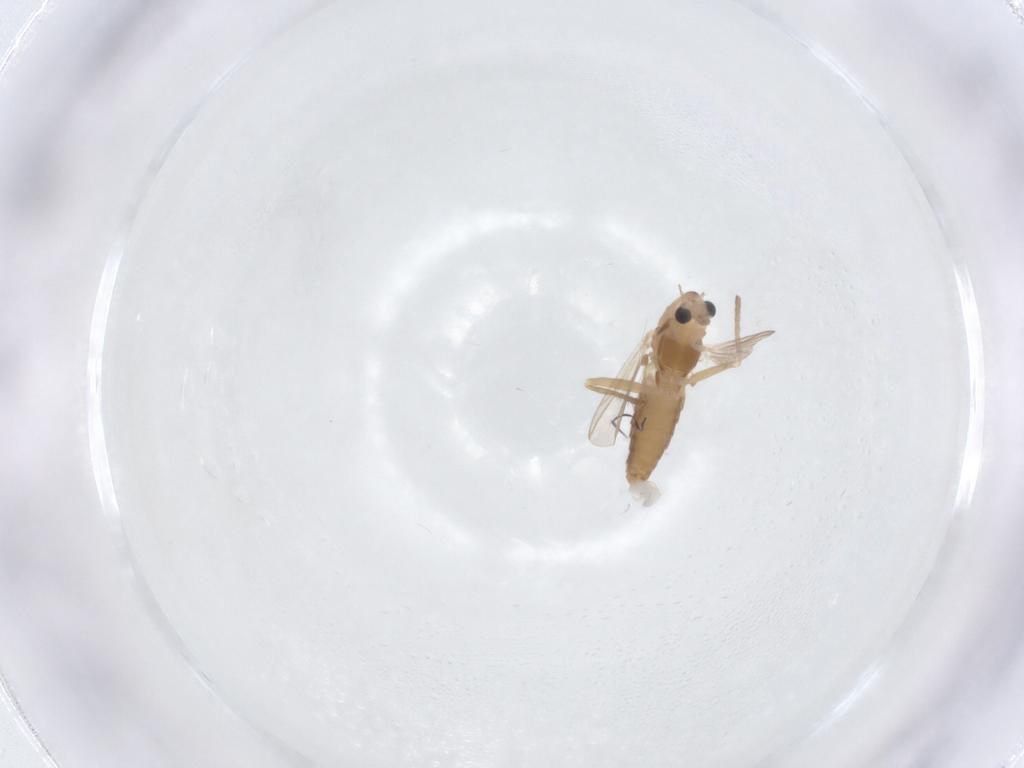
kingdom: Animalia
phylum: Arthropoda
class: Insecta
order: Diptera
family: Chironomidae
